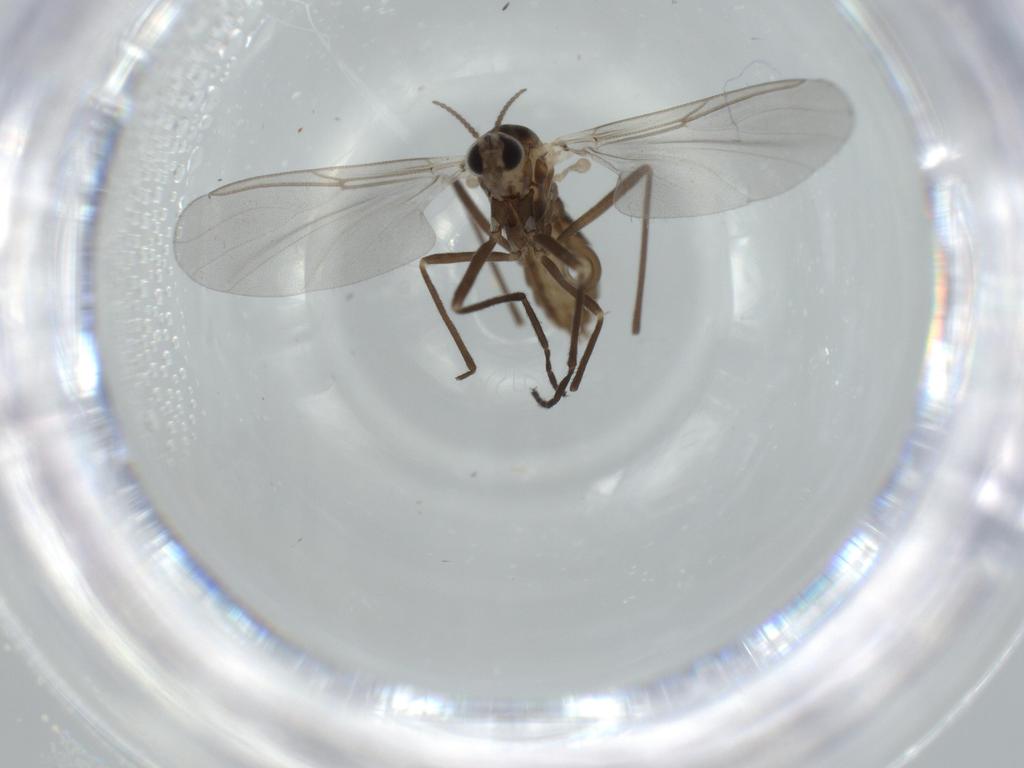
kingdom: Animalia
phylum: Arthropoda
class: Insecta
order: Diptera
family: Cecidomyiidae
